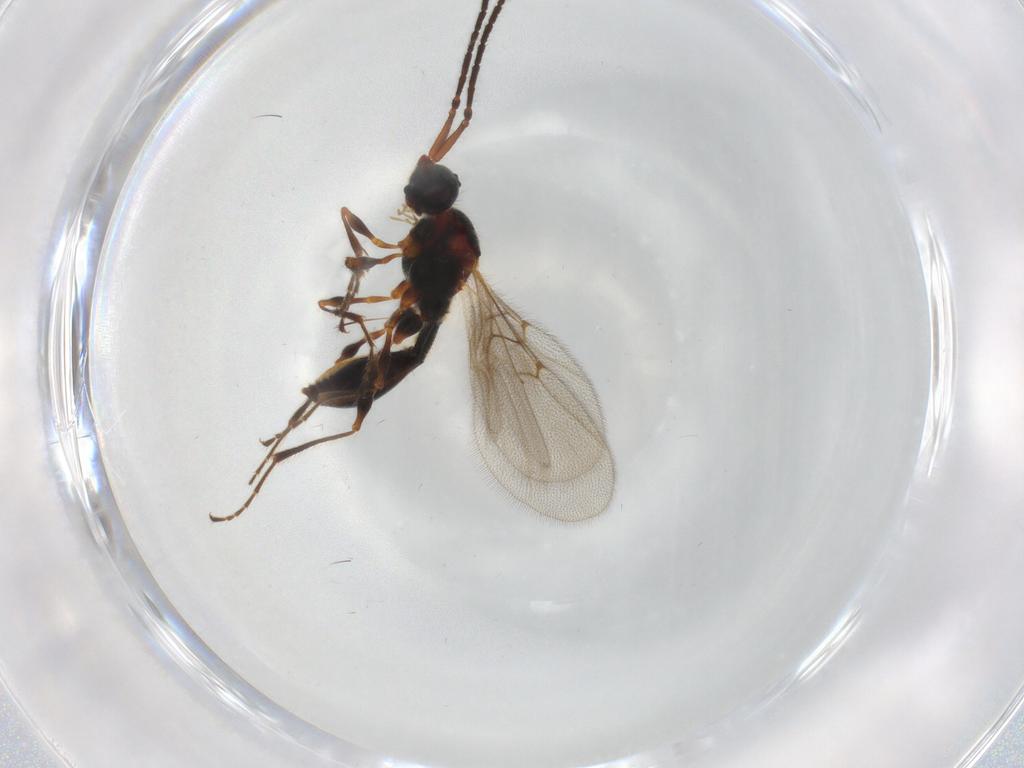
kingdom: Animalia
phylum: Arthropoda
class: Insecta
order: Hymenoptera
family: Diapriidae
